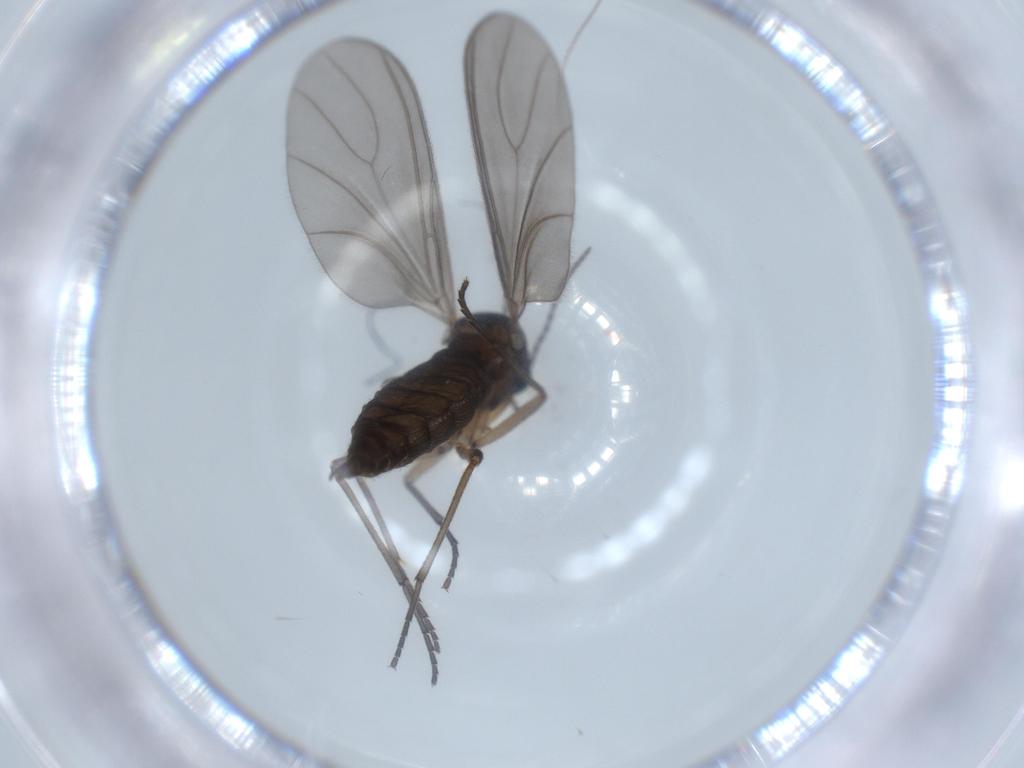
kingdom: Animalia
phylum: Arthropoda
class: Insecta
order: Diptera
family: Sciaridae
